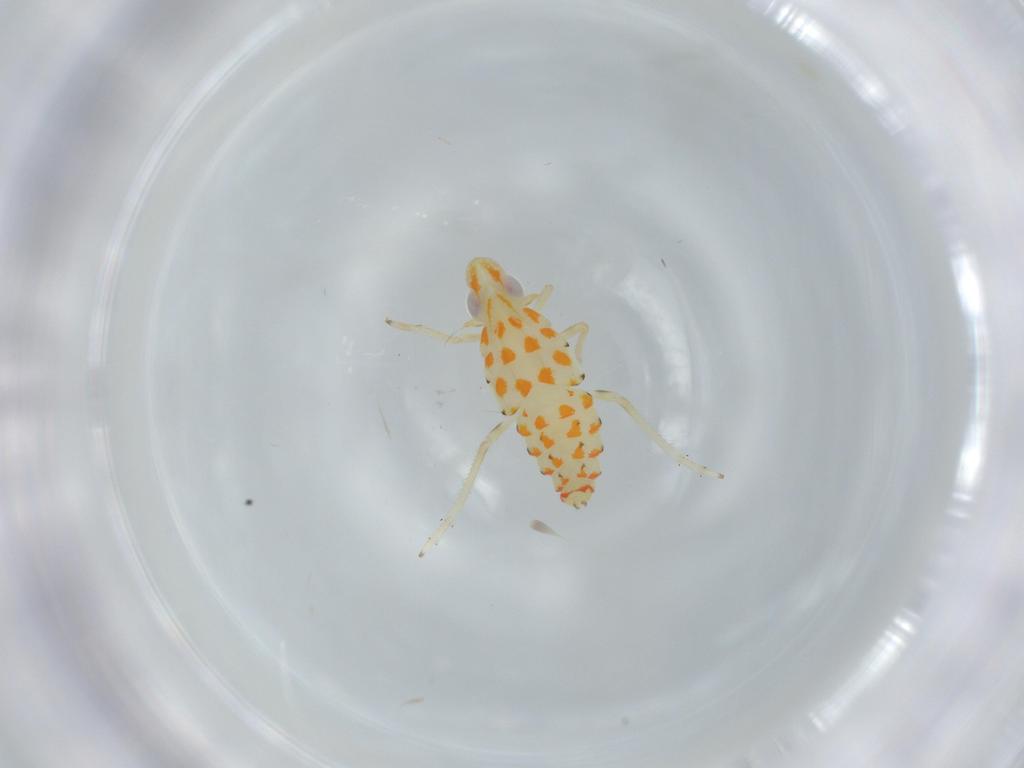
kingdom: Animalia
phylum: Arthropoda
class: Insecta
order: Hemiptera
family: Tropiduchidae
